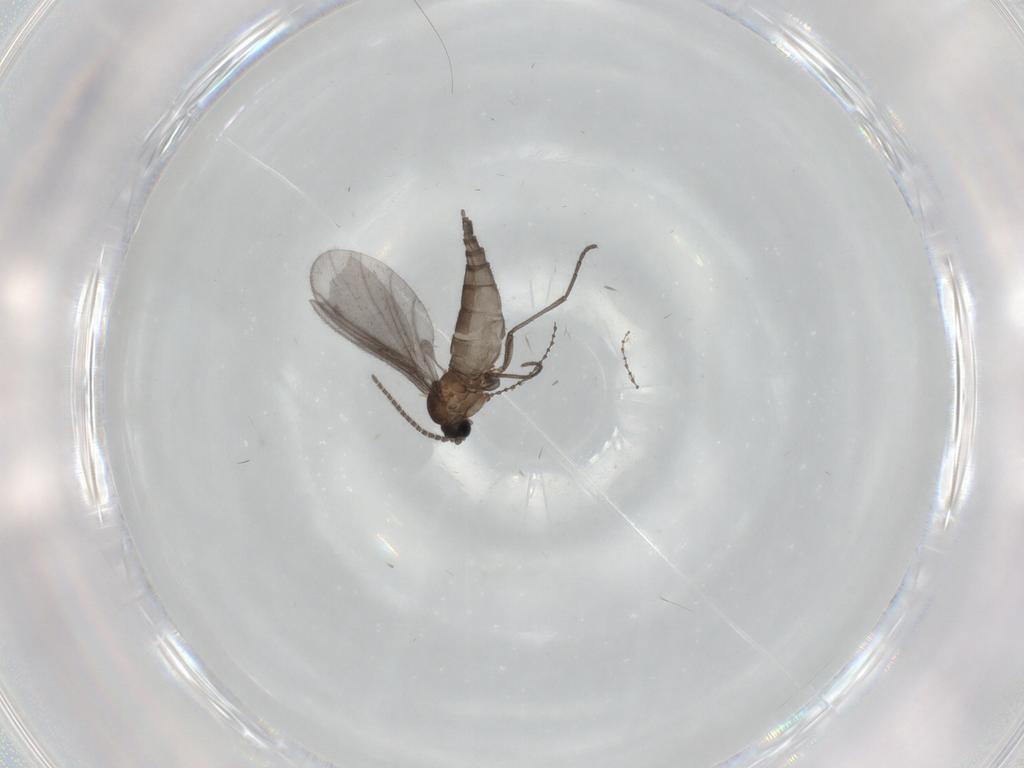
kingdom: Animalia
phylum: Arthropoda
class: Insecta
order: Diptera
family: Sciaridae
